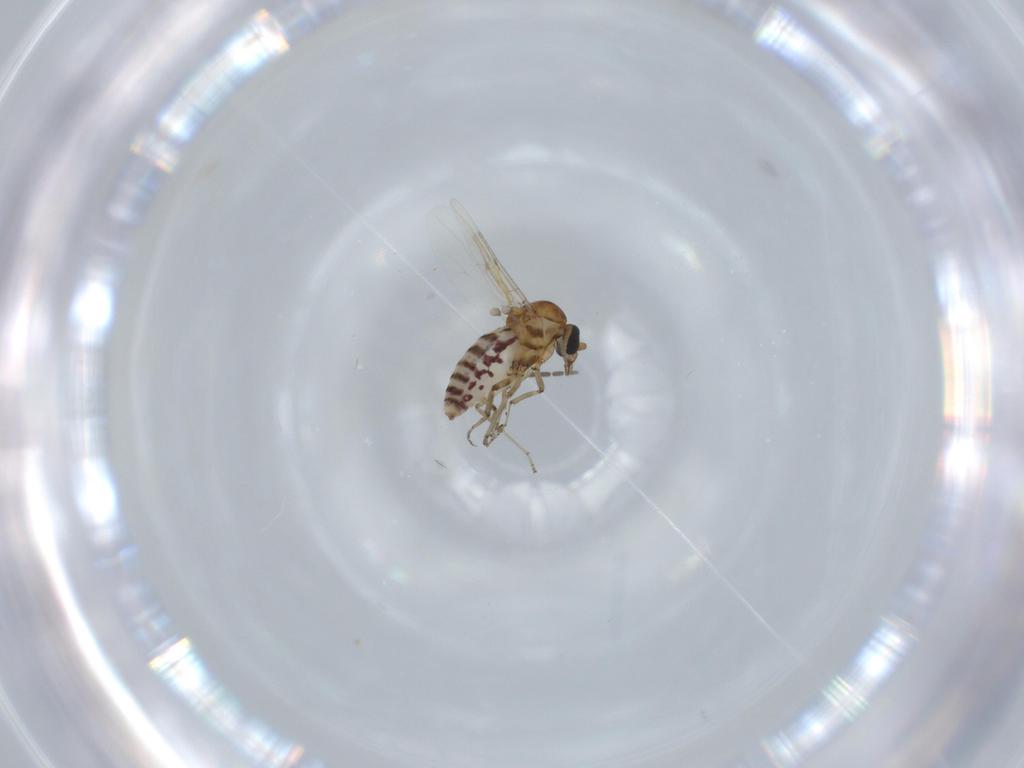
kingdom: Animalia
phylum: Arthropoda
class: Insecta
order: Diptera
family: Ceratopogonidae
